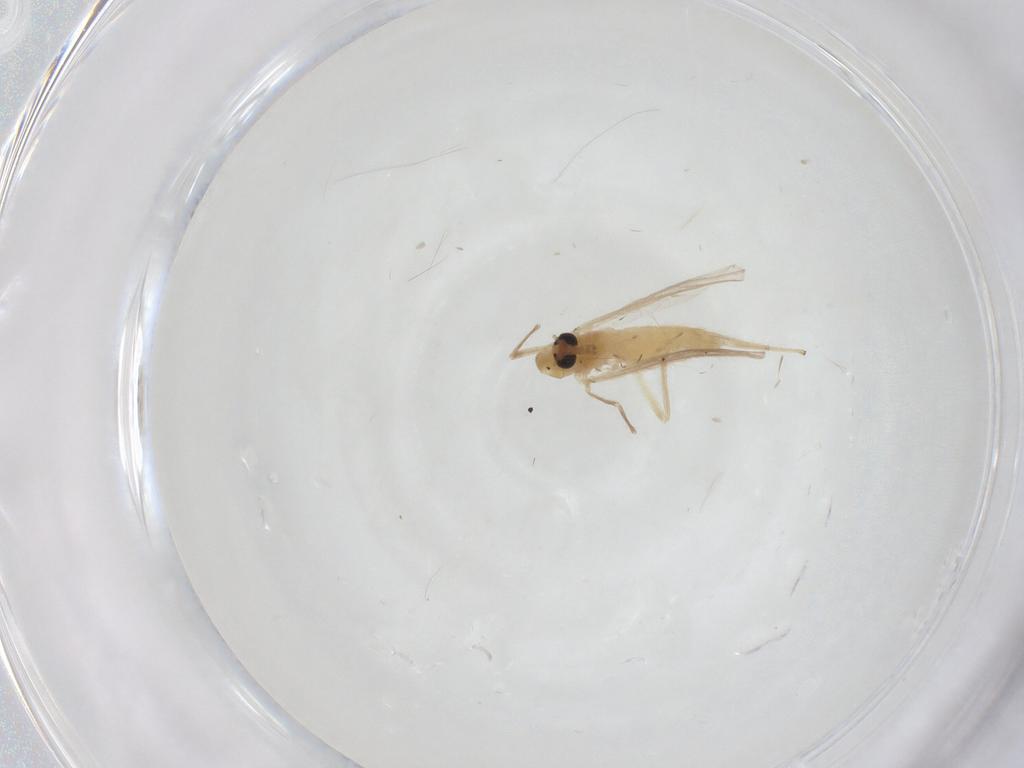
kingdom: Animalia
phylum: Arthropoda
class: Insecta
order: Diptera
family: Chironomidae
